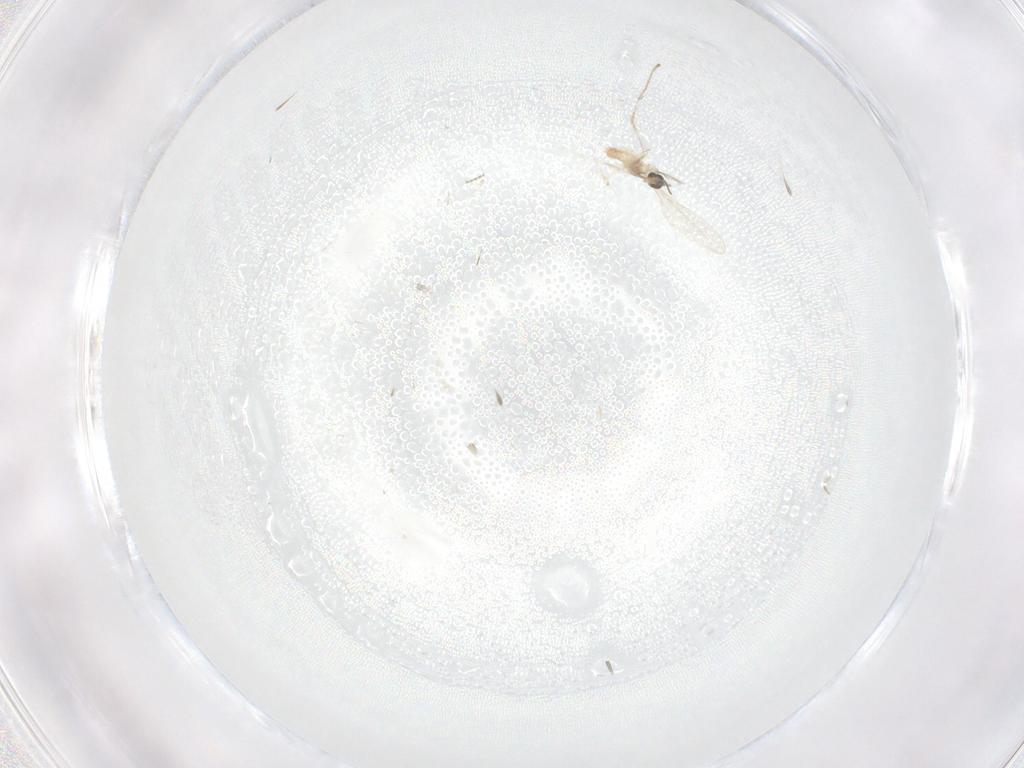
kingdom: Animalia
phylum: Arthropoda
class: Insecta
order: Diptera
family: Cecidomyiidae
